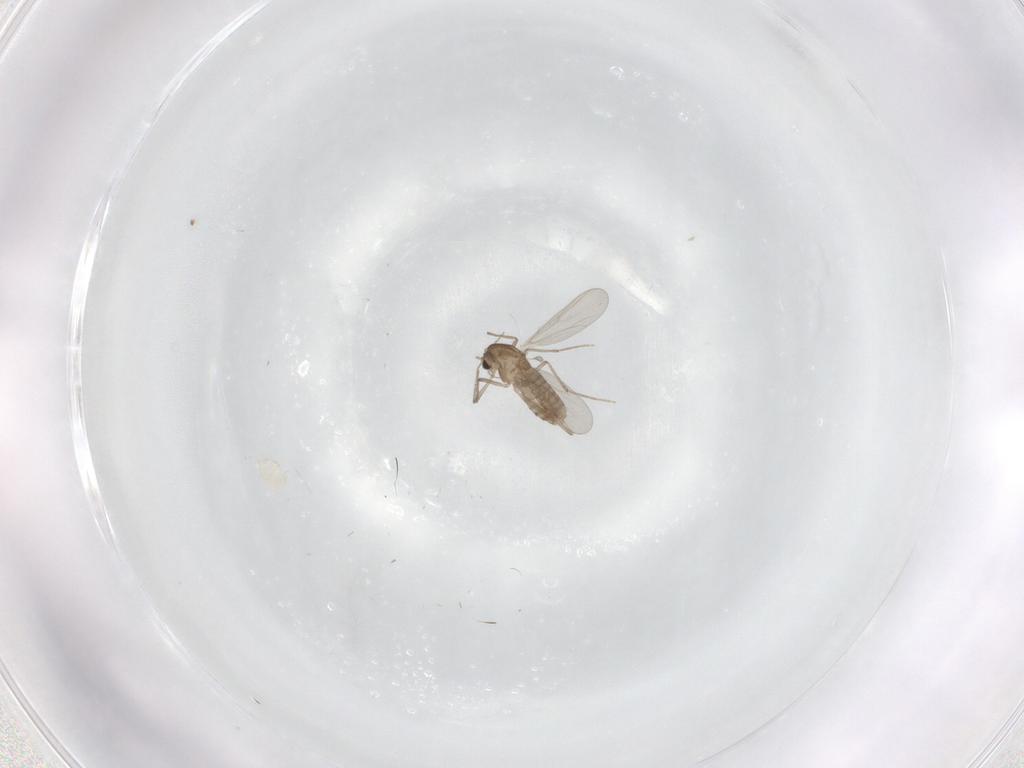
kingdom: Animalia
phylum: Arthropoda
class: Insecta
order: Diptera
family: Chironomidae
